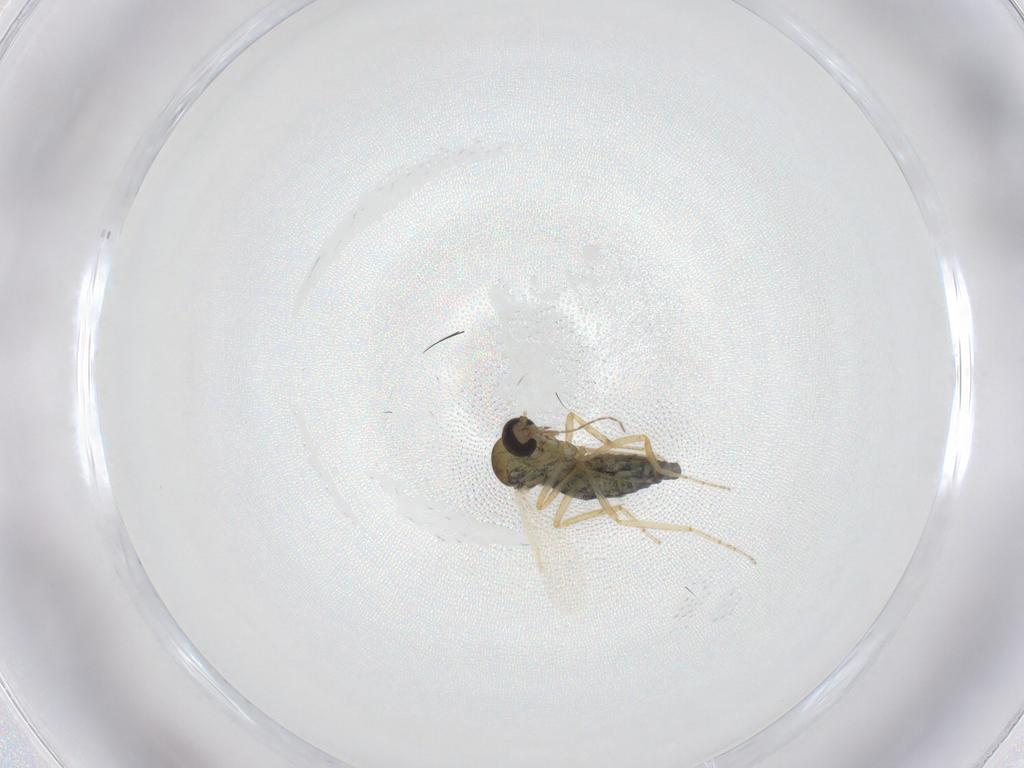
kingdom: Animalia
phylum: Arthropoda
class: Insecta
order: Diptera
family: Ceratopogonidae
